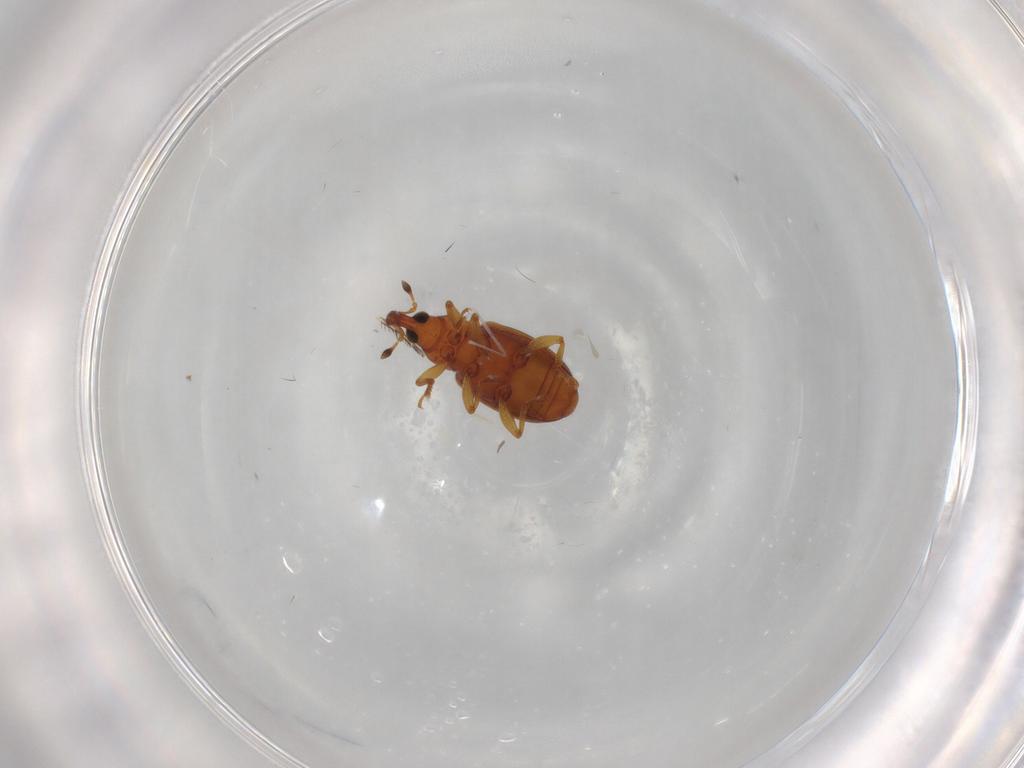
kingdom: Animalia
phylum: Arthropoda
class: Insecta
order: Coleoptera
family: Curculionidae
